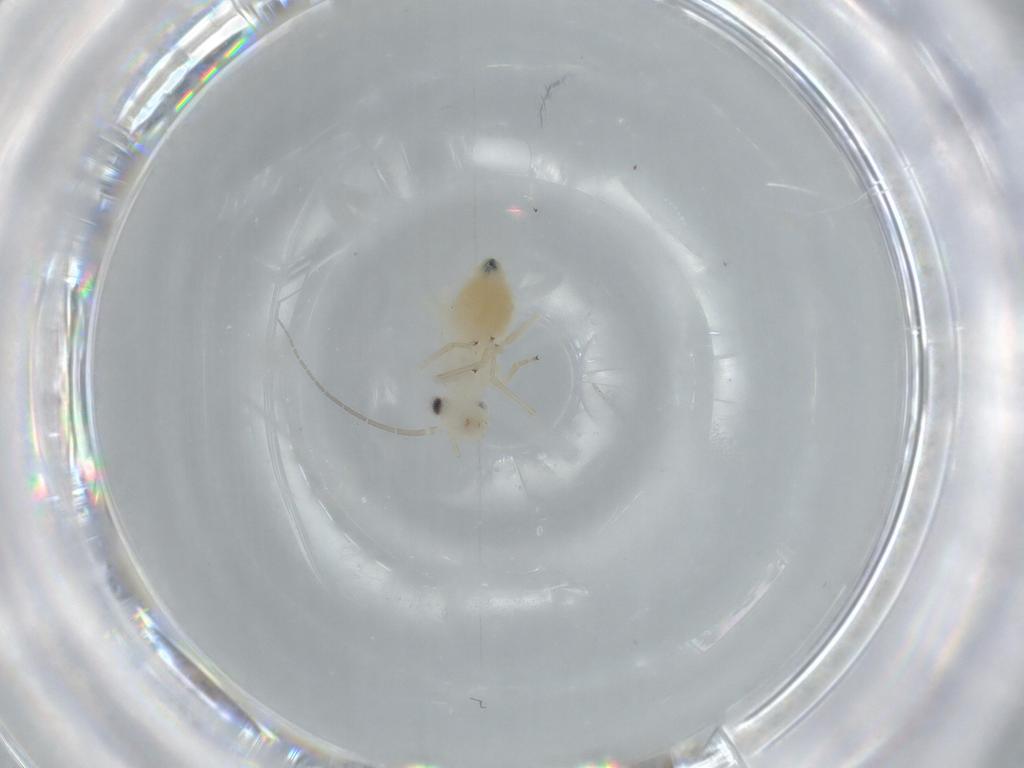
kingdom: Animalia
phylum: Arthropoda
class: Insecta
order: Psocodea
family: Caeciliusidae
